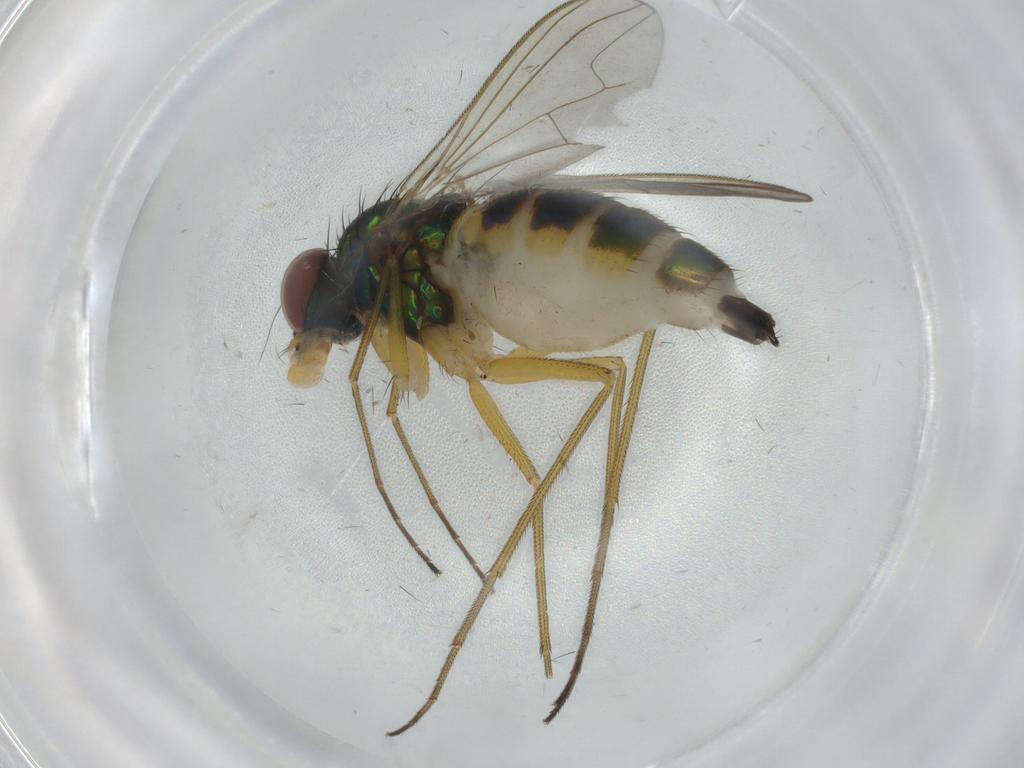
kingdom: Animalia
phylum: Arthropoda
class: Insecta
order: Diptera
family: Dolichopodidae
